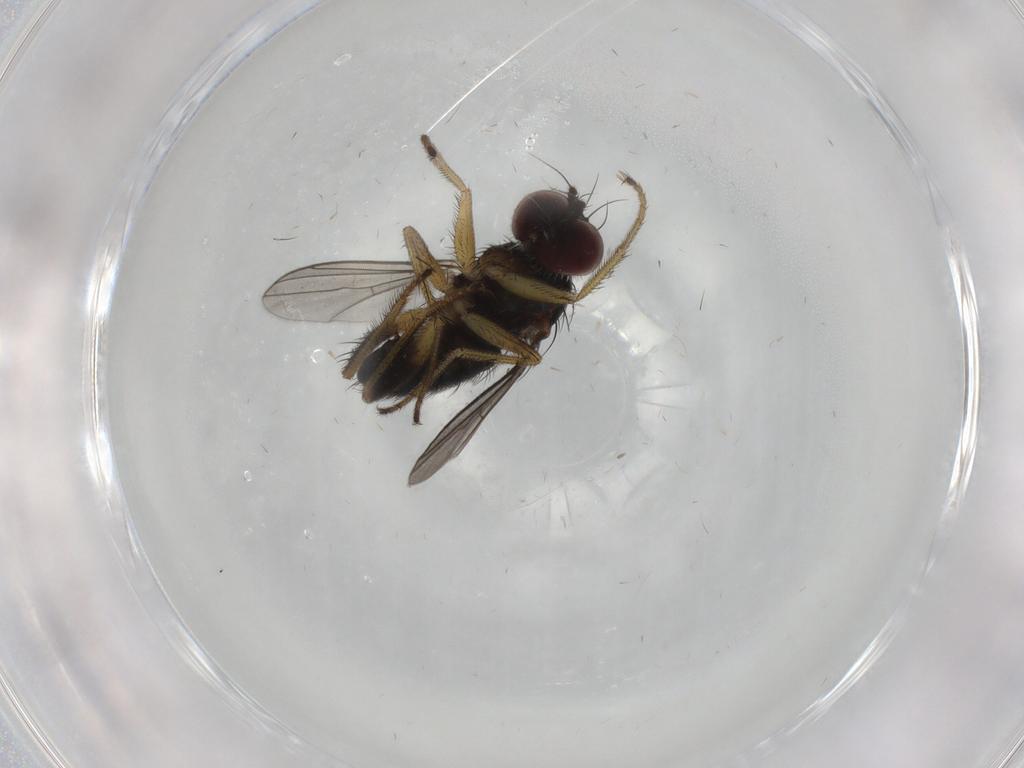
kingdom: Animalia
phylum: Arthropoda
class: Insecta
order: Diptera
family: Dolichopodidae
